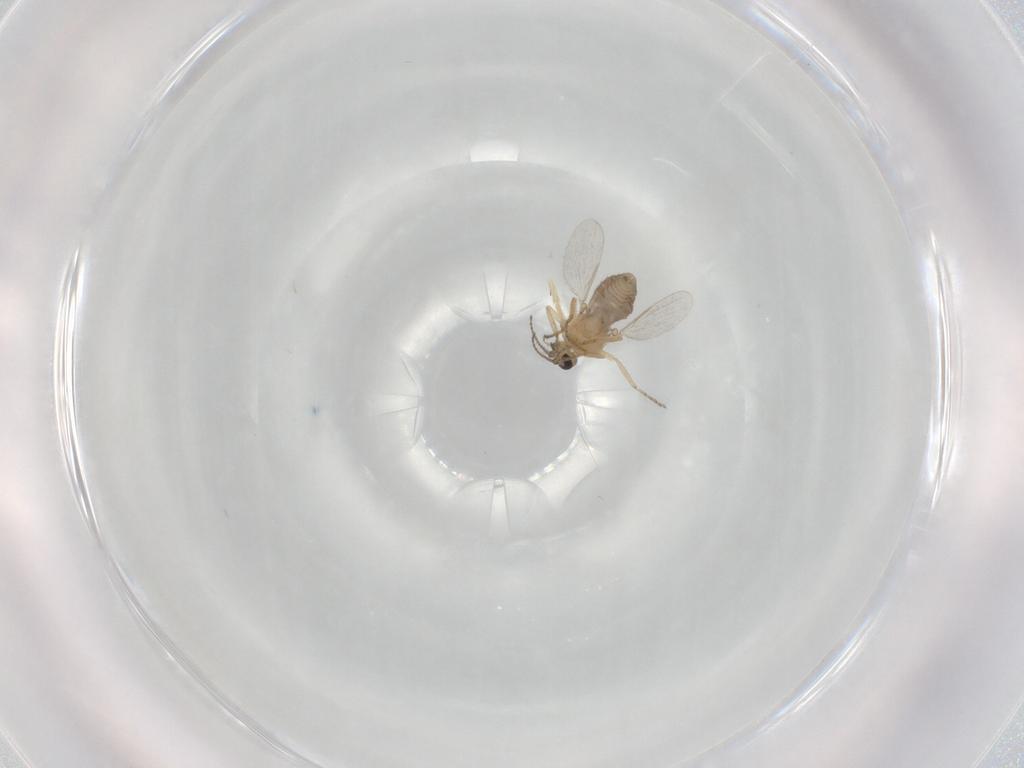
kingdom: Animalia
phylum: Arthropoda
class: Insecta
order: Diptera
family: Ceratopogonidae
